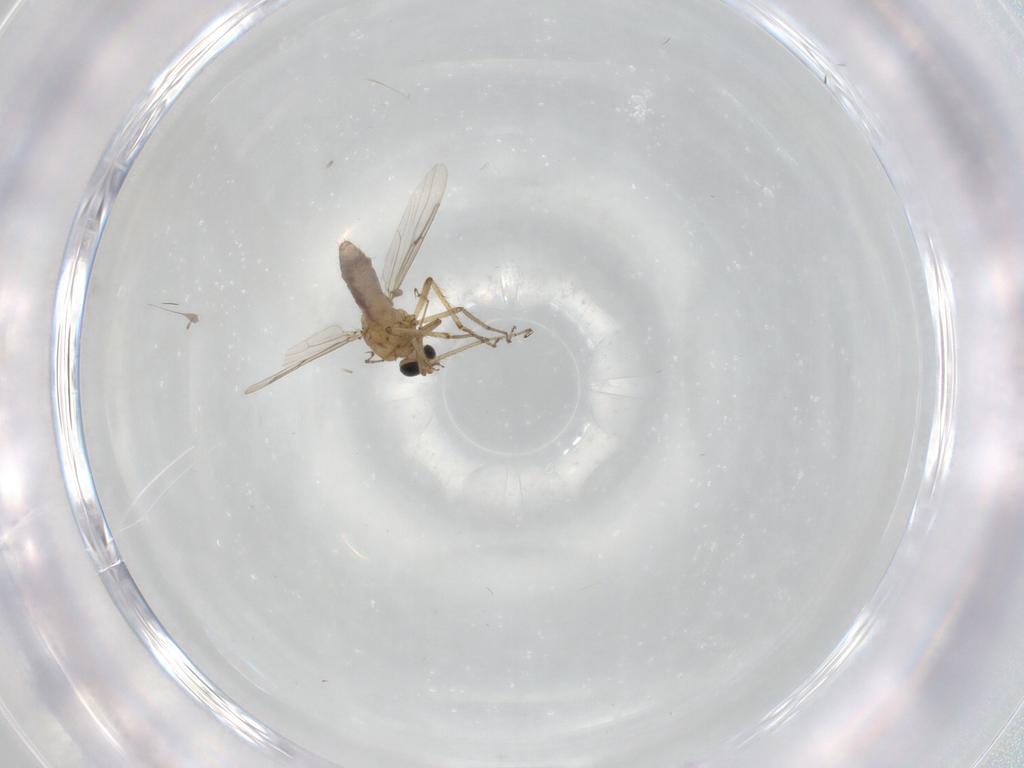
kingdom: Animalia
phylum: Arthropoda
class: Insecta
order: Diptera
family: Chironomidae
